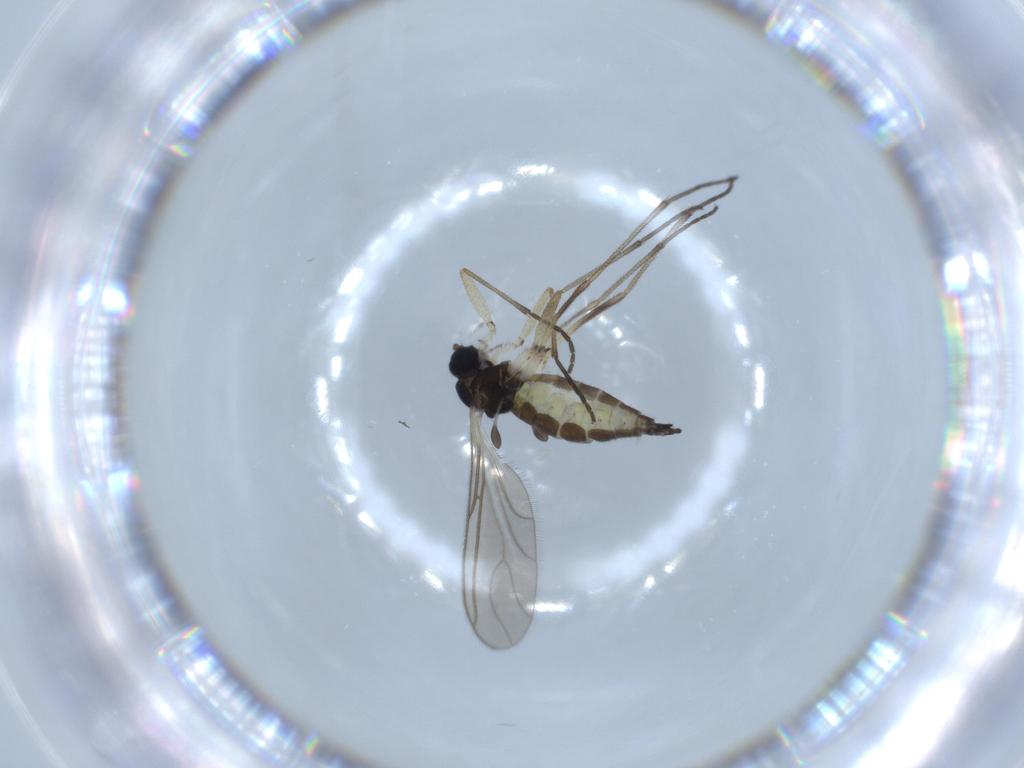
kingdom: Animalia
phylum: Arthropoda
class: Insecta
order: Diptera
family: Sciaridae
